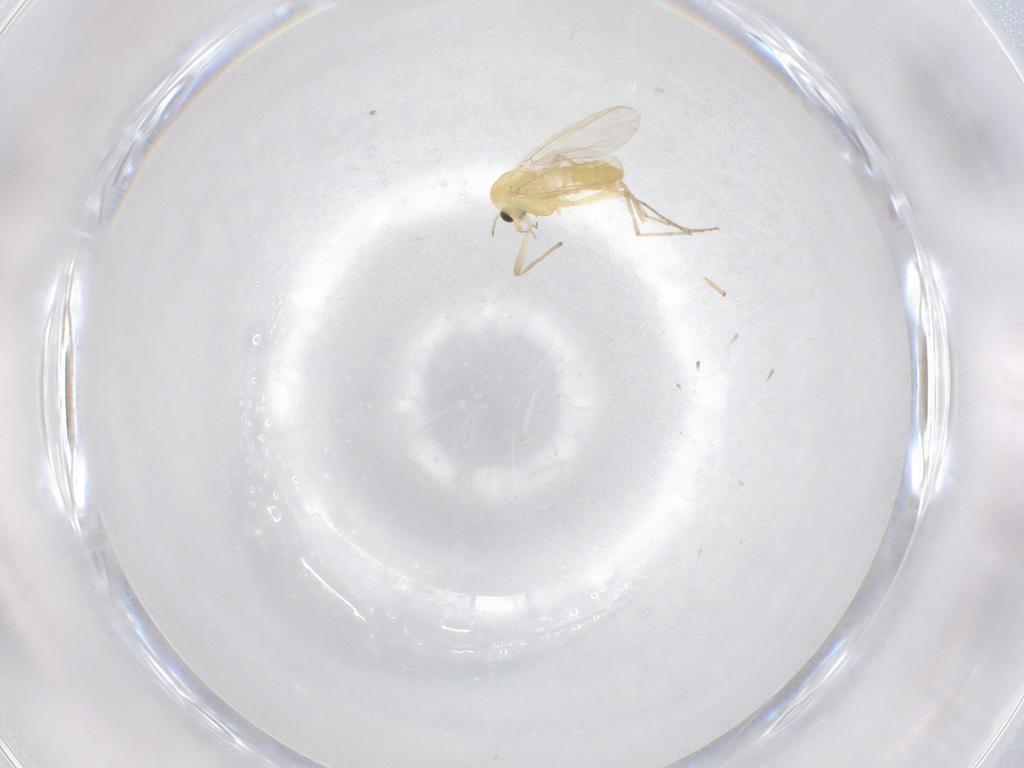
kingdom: Animalia
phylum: Arthropoda
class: Insecta
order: Diptera
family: Chironomidae
